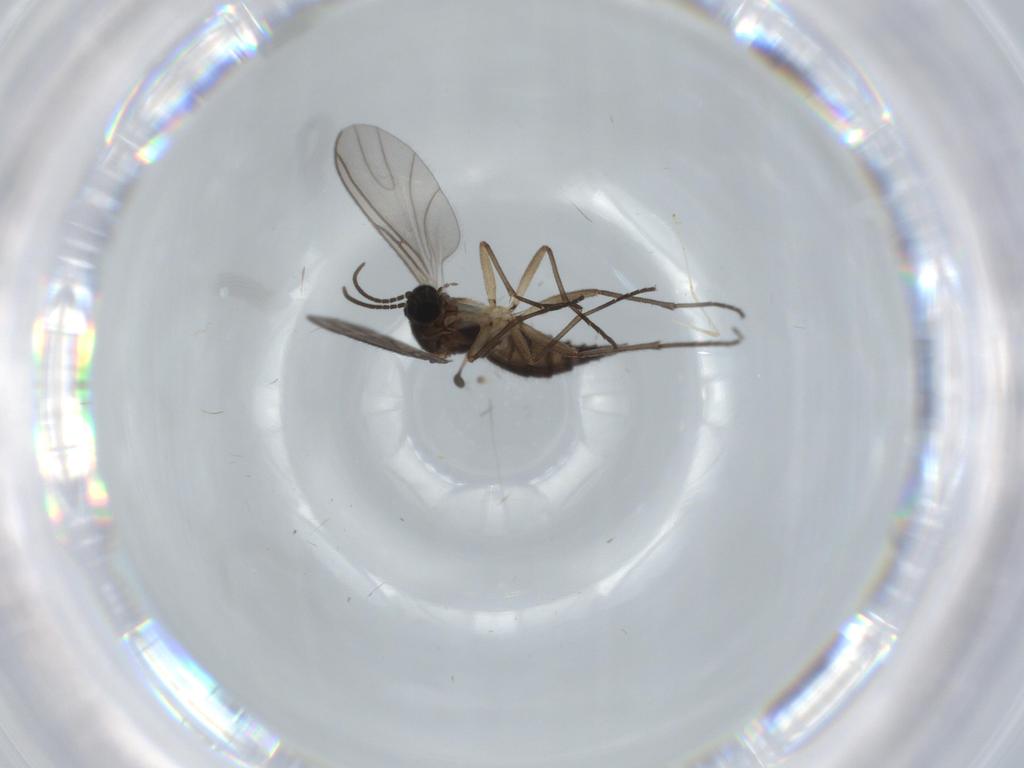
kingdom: Animalia
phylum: Arthropoda
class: Insecta
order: Diptera
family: Sciaridae
